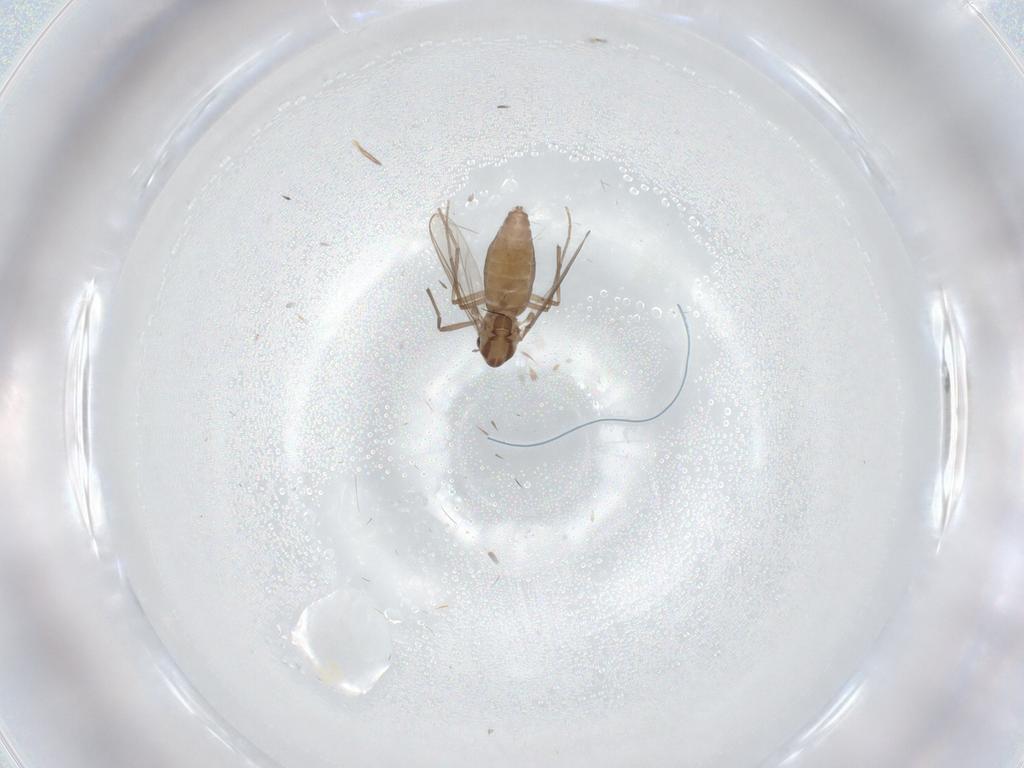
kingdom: Animalia
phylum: Arthropoda
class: Insecta
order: Diptera
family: Chironomidae
